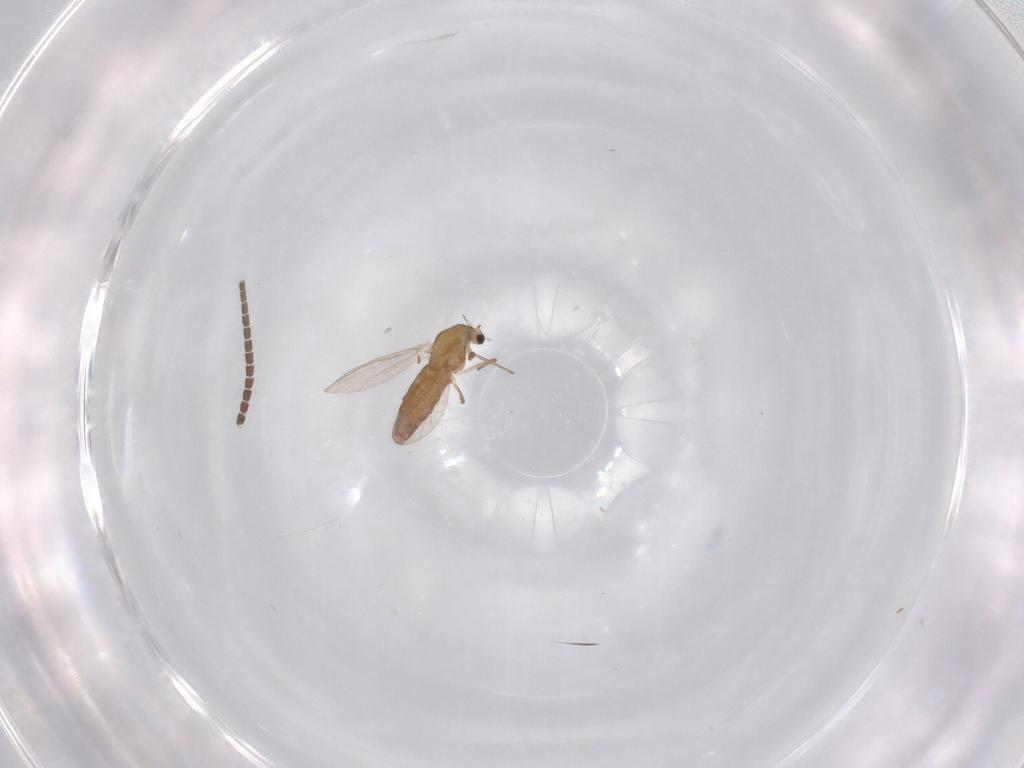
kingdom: Animalia
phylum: Arthropoda
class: Insecta
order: Diptera
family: Chironomidae
